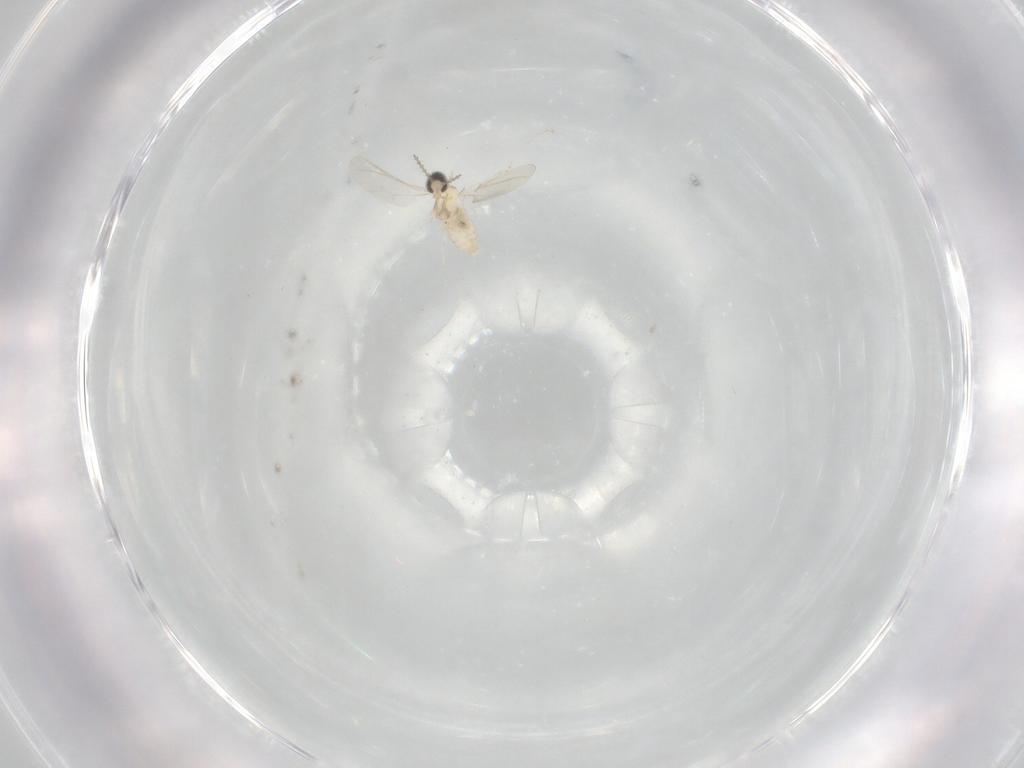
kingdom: Animalia
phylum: Arthropoda
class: Insecta
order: Diptera
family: Cecidomyiidae
